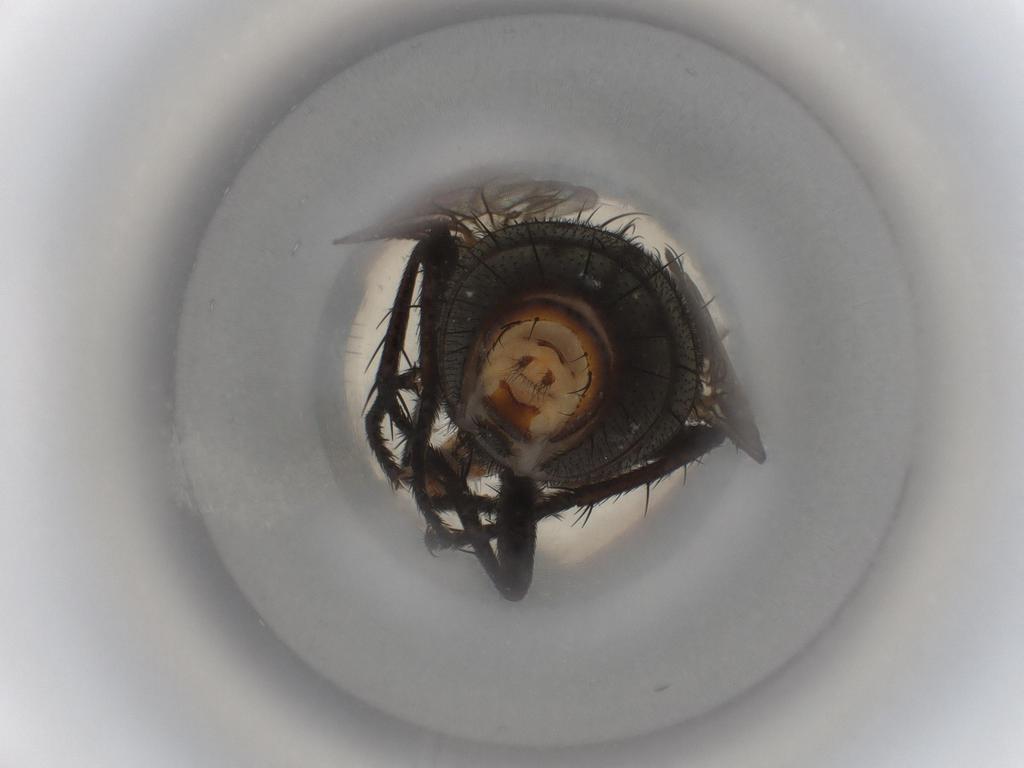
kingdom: Animalia
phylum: Arthropoda
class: Insecta
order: Diptera
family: Sarcophagidae
